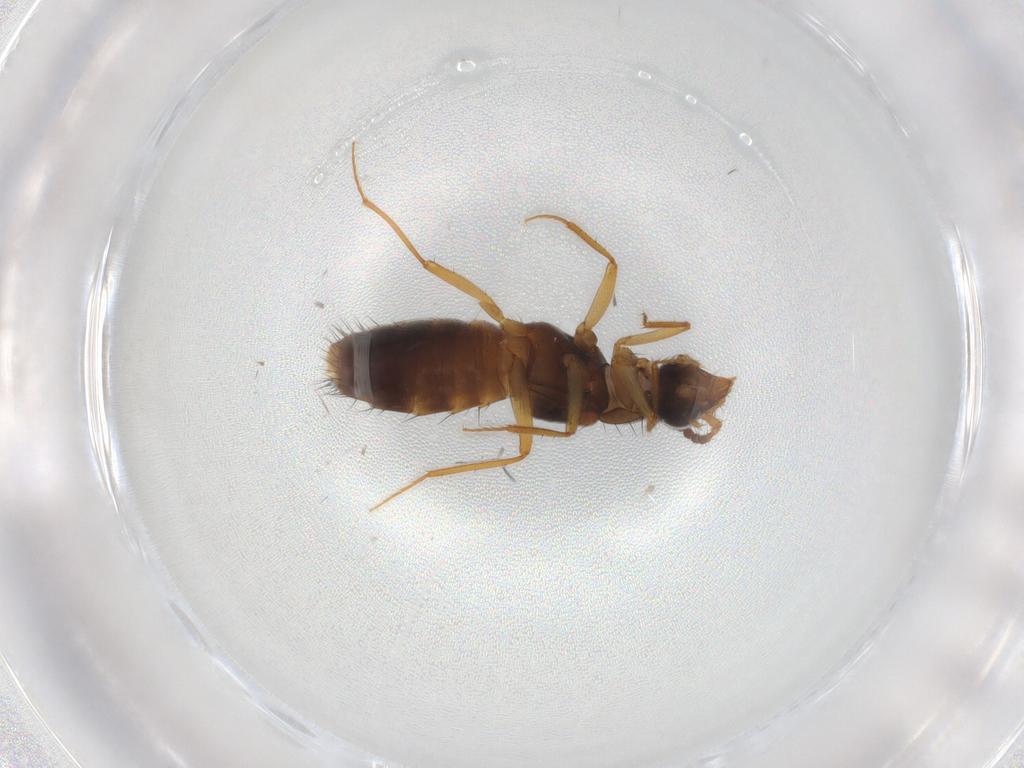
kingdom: Animalia
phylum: Arthropoda
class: Insecta
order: Coleoptera
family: Staphylinidae
